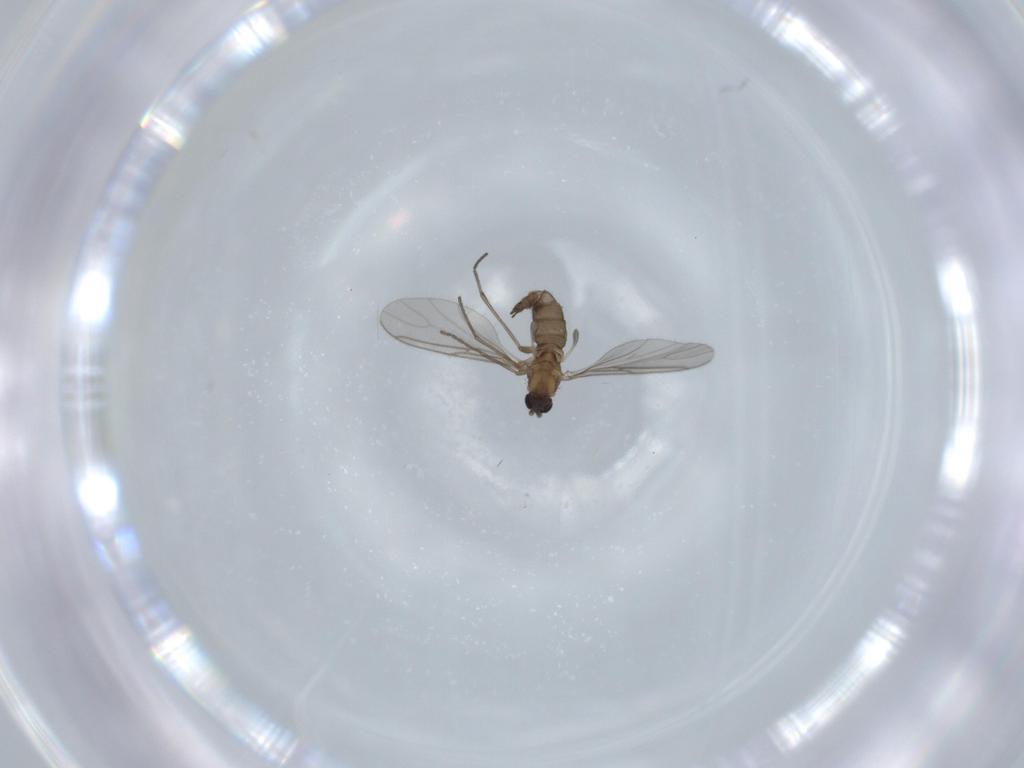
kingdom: Animalia
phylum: Arthropoda
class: Insecta
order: Diptera
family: Sciaridae
